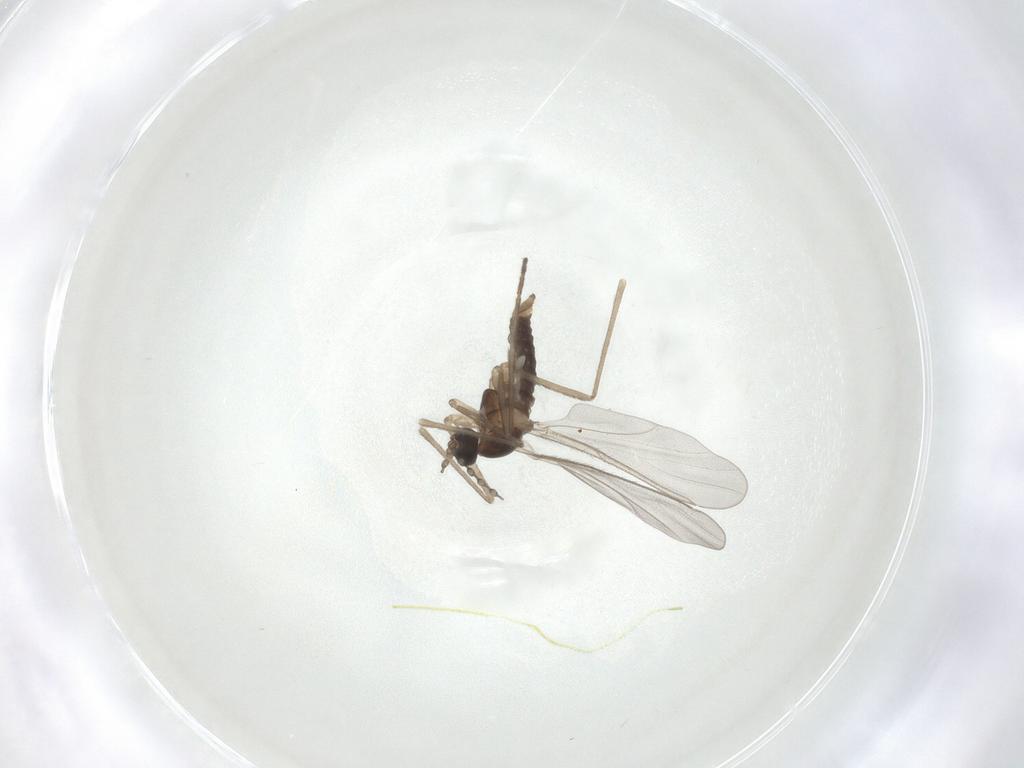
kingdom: Animalia
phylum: Arthropoda
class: Insecta
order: Diptera
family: Cecidomyiidae
